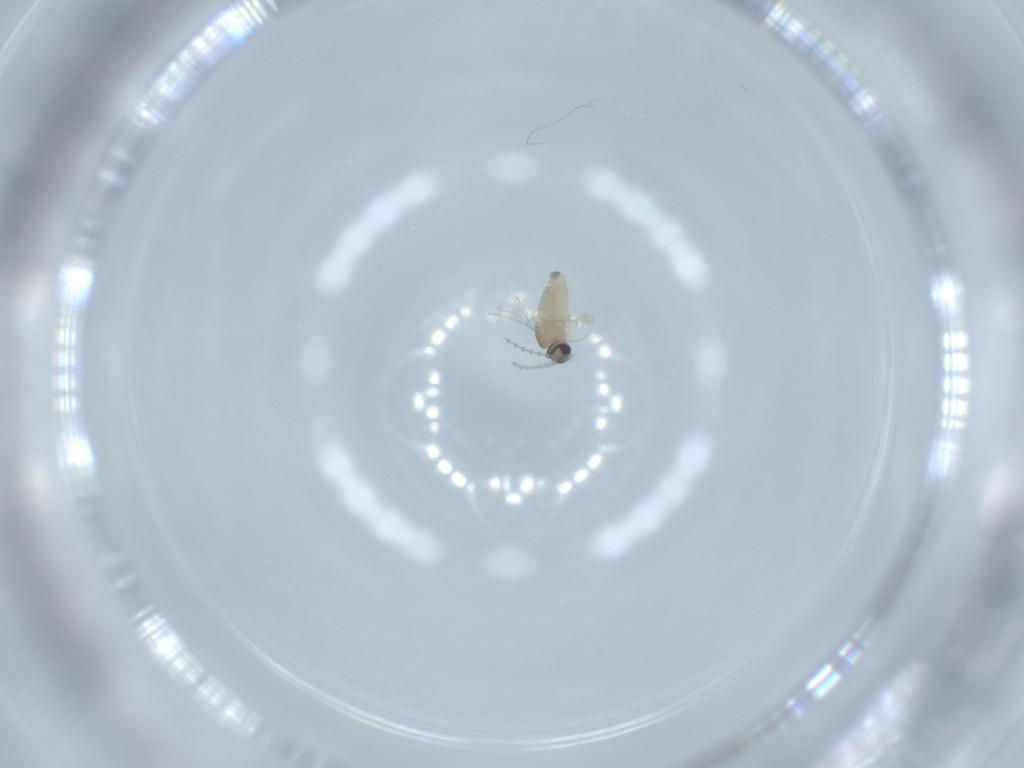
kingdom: Animalia
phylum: Arthropoda
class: Insecta
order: Diptera
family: Cecidomyiidae
